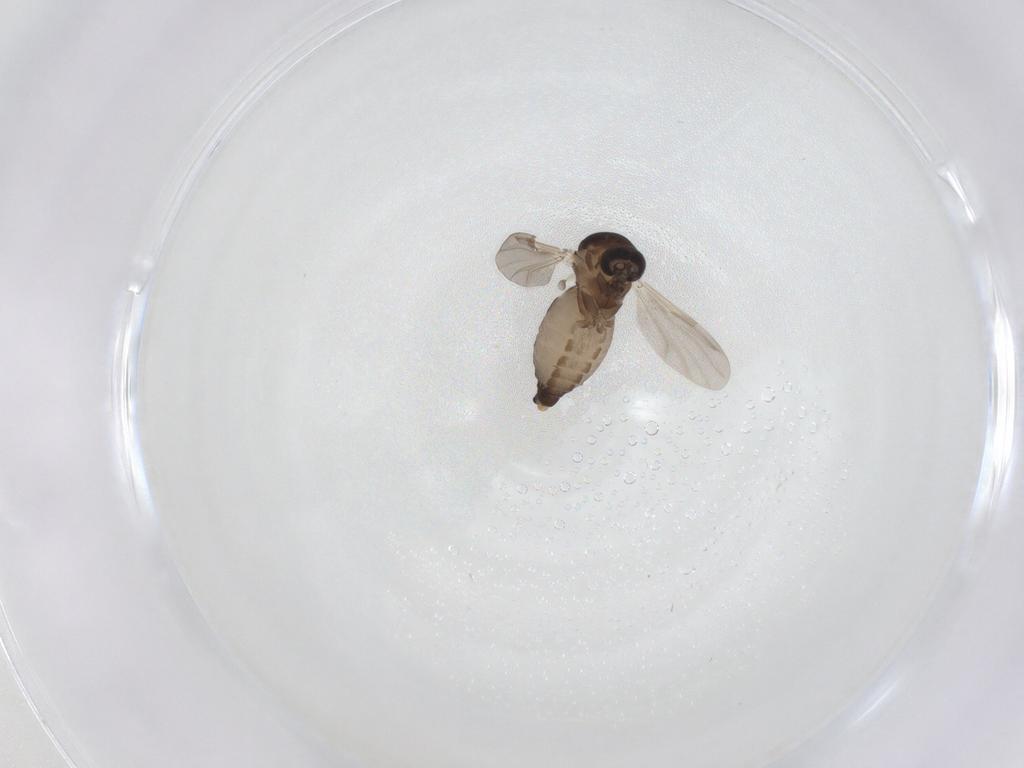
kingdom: Animalia
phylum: Arthropoda
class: Insecta
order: Diptera
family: Ceratopogonidae
